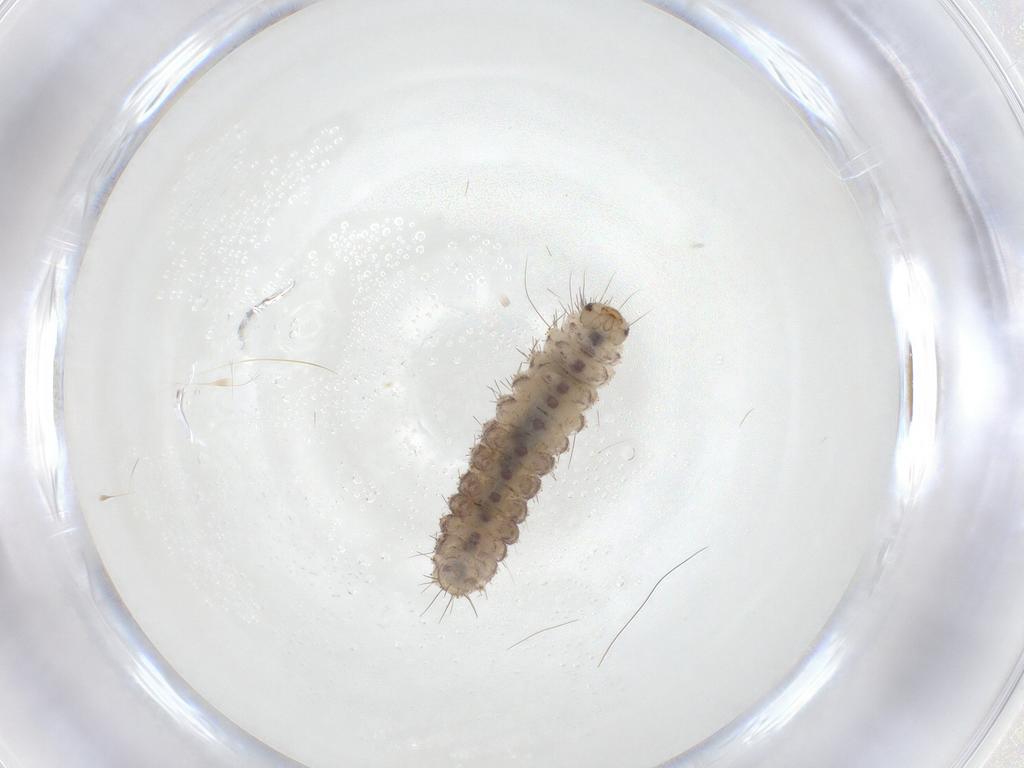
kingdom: Animalia
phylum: Arthropoda
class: Insecta
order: Lepidoptera
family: Erebidae
